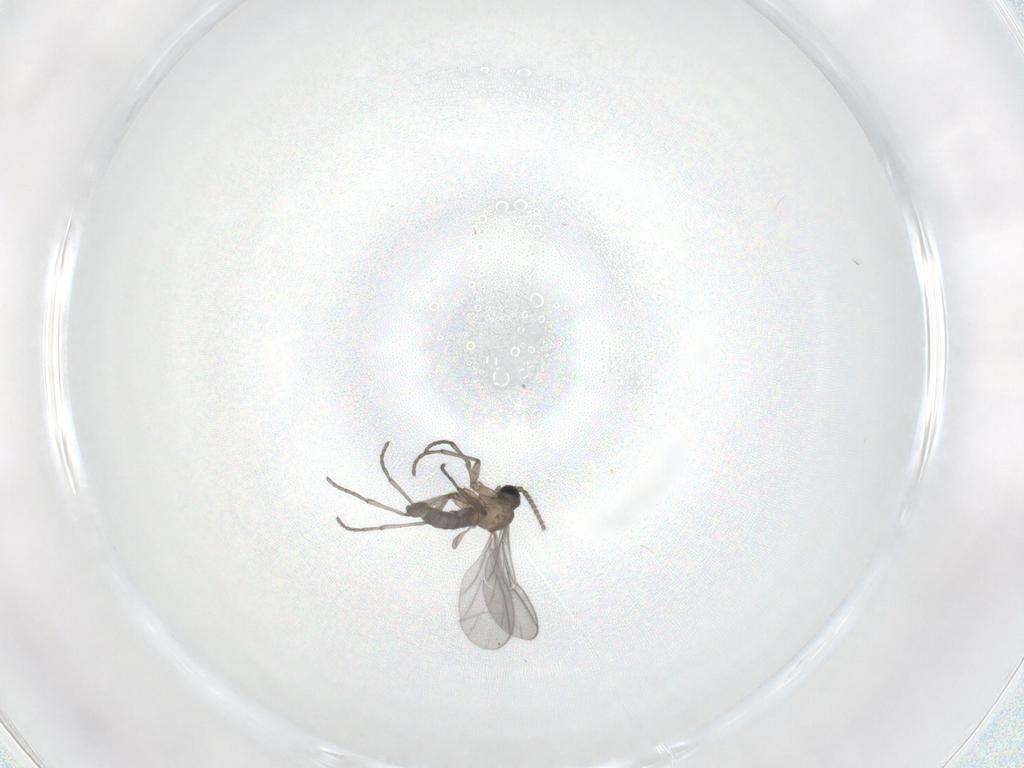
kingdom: Animalia
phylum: Arthropoda
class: Insecta
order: Diptera
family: Sciaridae
